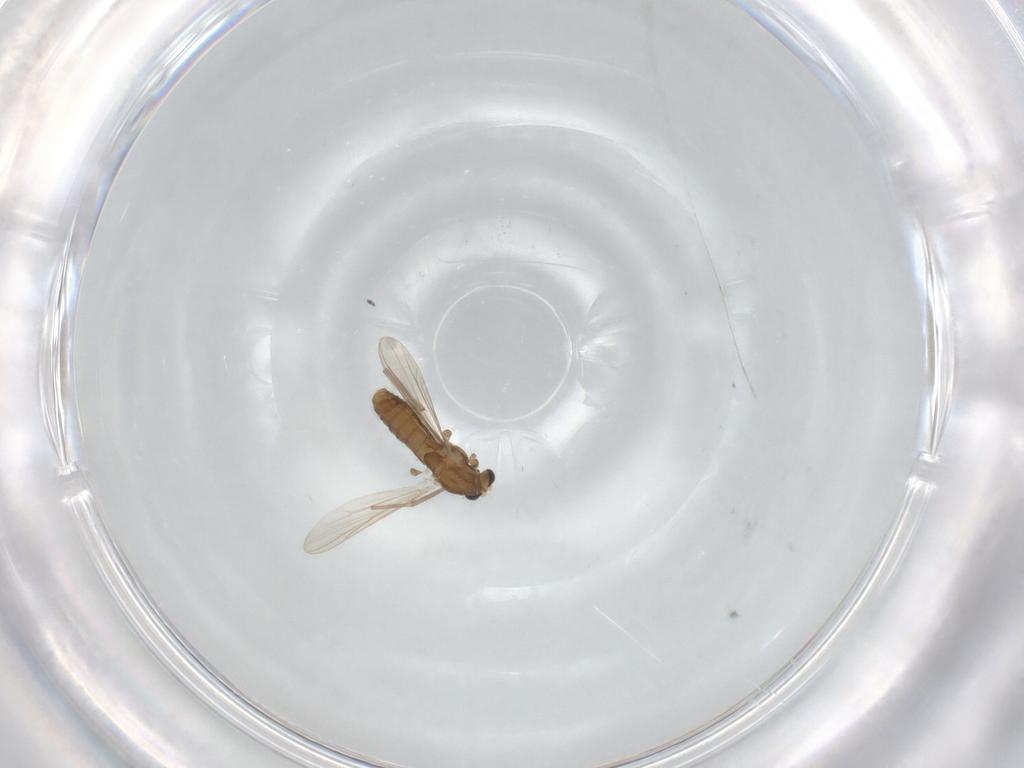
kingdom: Animalia
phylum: Arthropoda
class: Insecta
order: Diptera
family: Chironomidae
